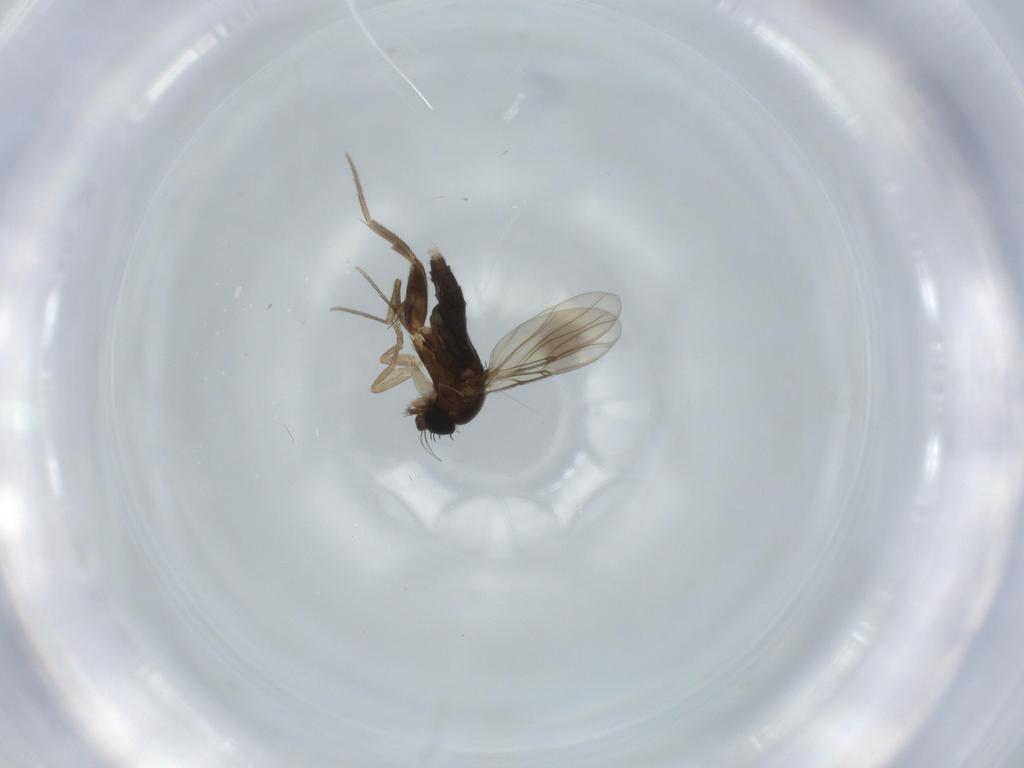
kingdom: Animalia
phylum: Arthropoda
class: Insecta
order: Diptera
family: Phoridae
